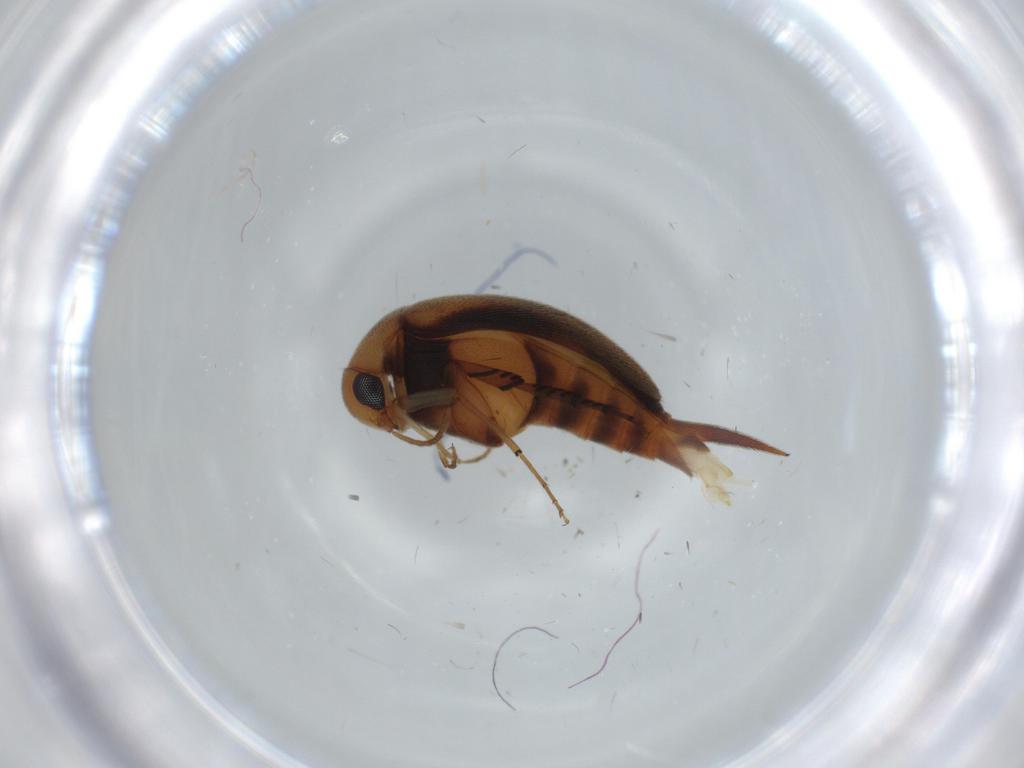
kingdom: Animalia
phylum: Arthropoda
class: Insecta
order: Coleoptera
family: Mordellidae
